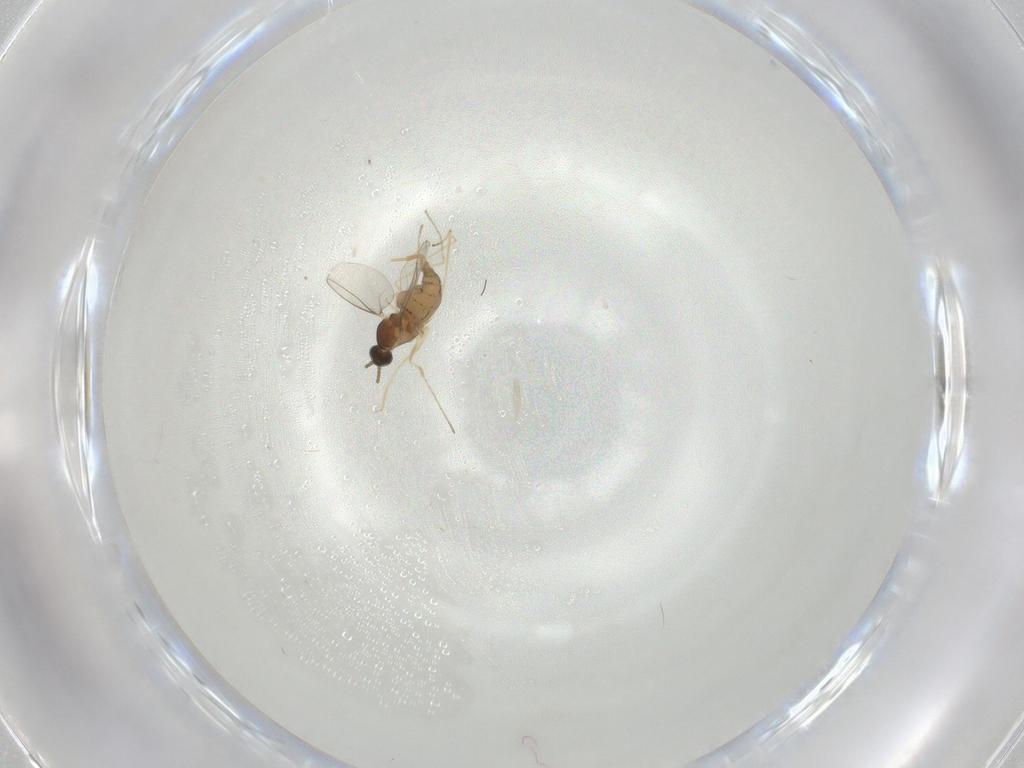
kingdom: Animalia
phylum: Arthropoda
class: Insecta
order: Diptera
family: Cecidomyiidae
